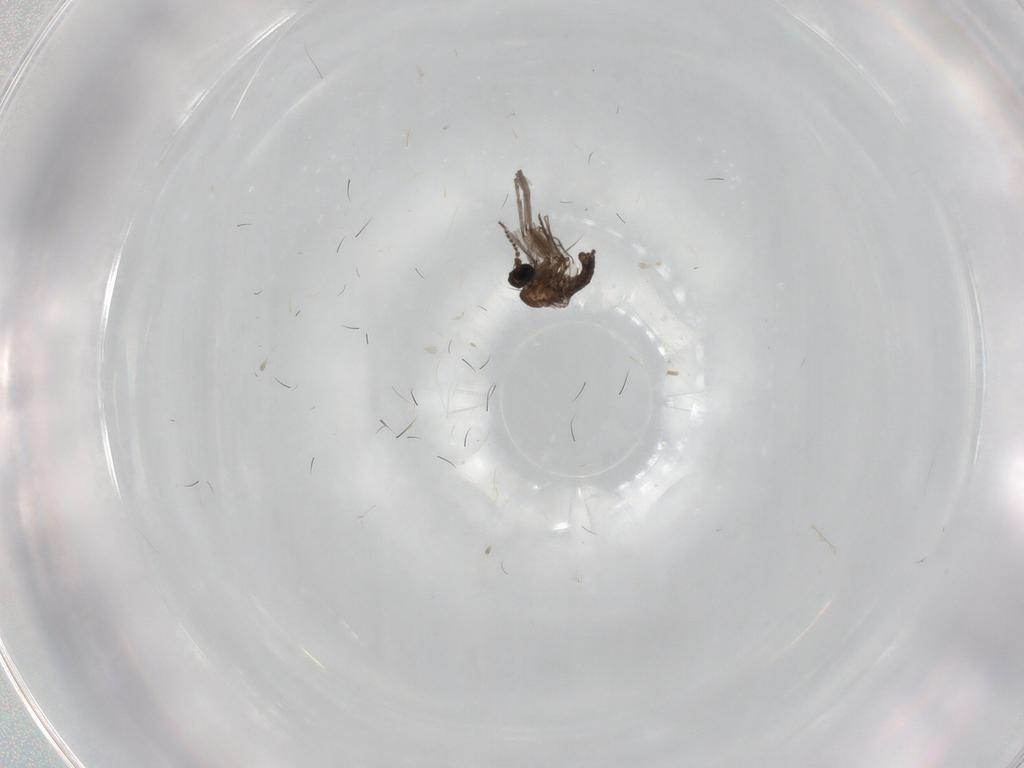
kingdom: Animalia
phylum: Arthropoda
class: Insecta
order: Diptera
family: Sciaridae
